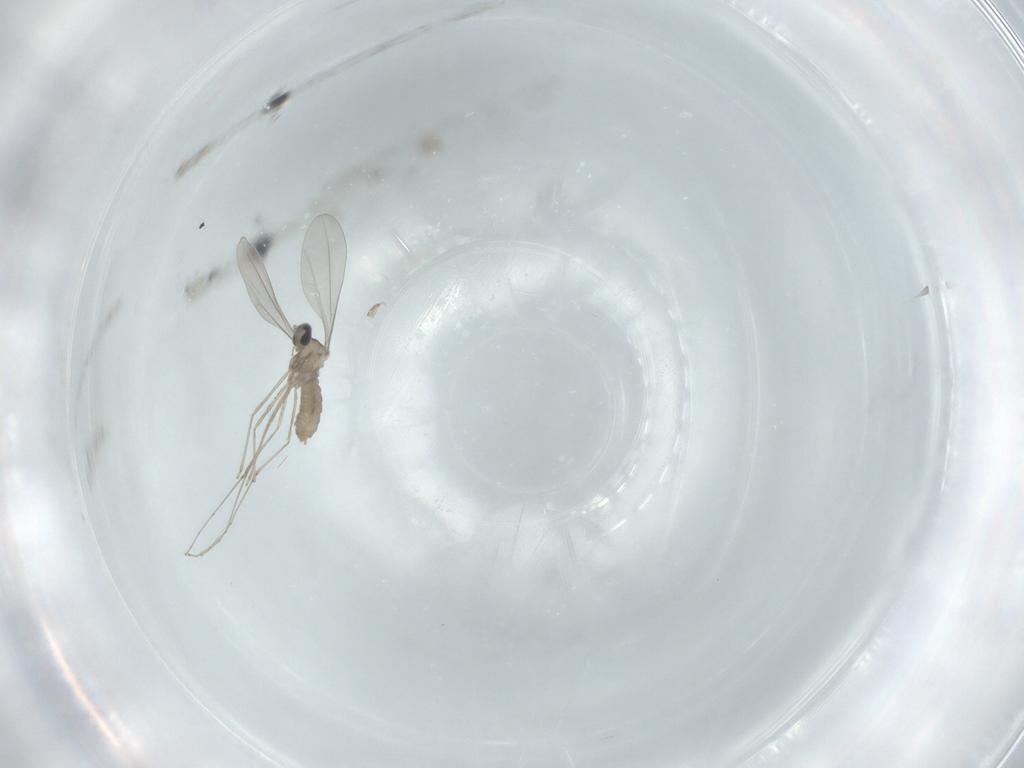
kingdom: Animalia
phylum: Arthropoda
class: Insecta
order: Diptera
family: Cecidomyiidae
